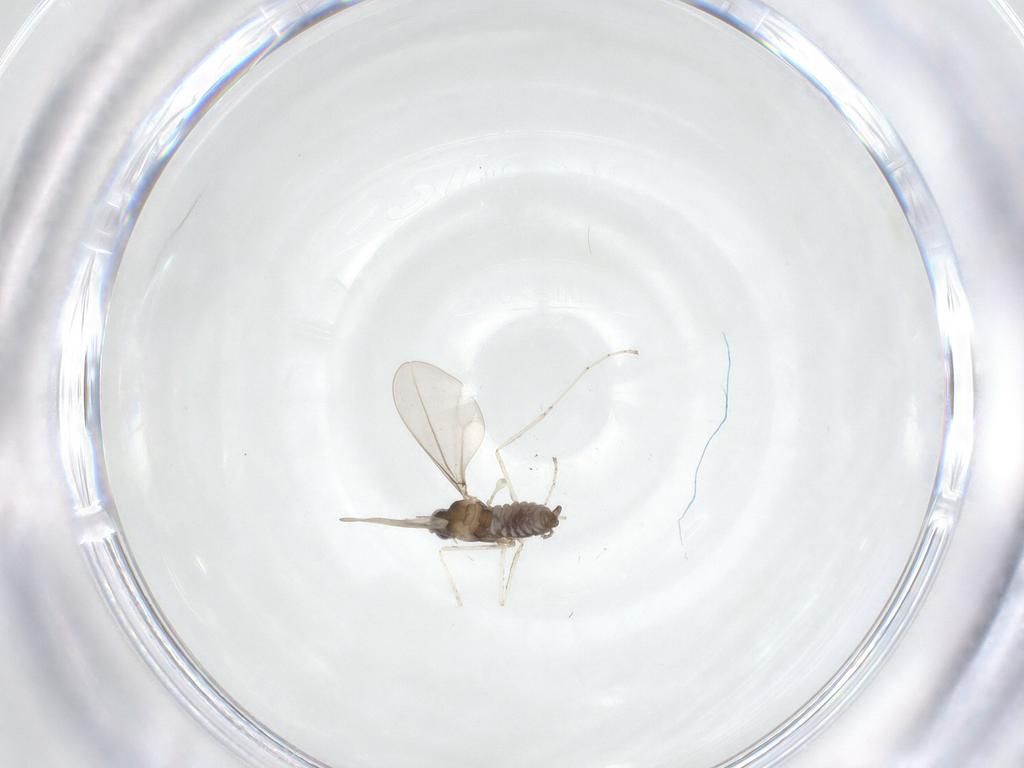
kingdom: Animalia
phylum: Arthropoda
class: Insecta
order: Diptera
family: Cecidomyiidae
